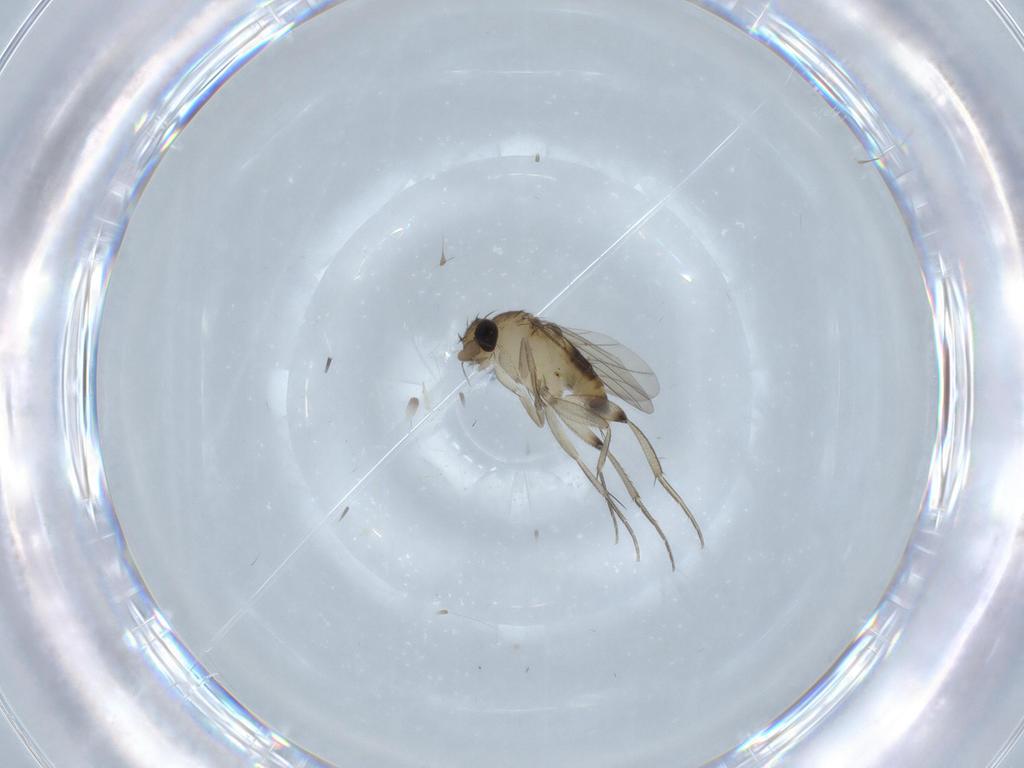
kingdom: Animalia
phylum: Arthropoda
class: Insecta
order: Diptera
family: Phoridae
